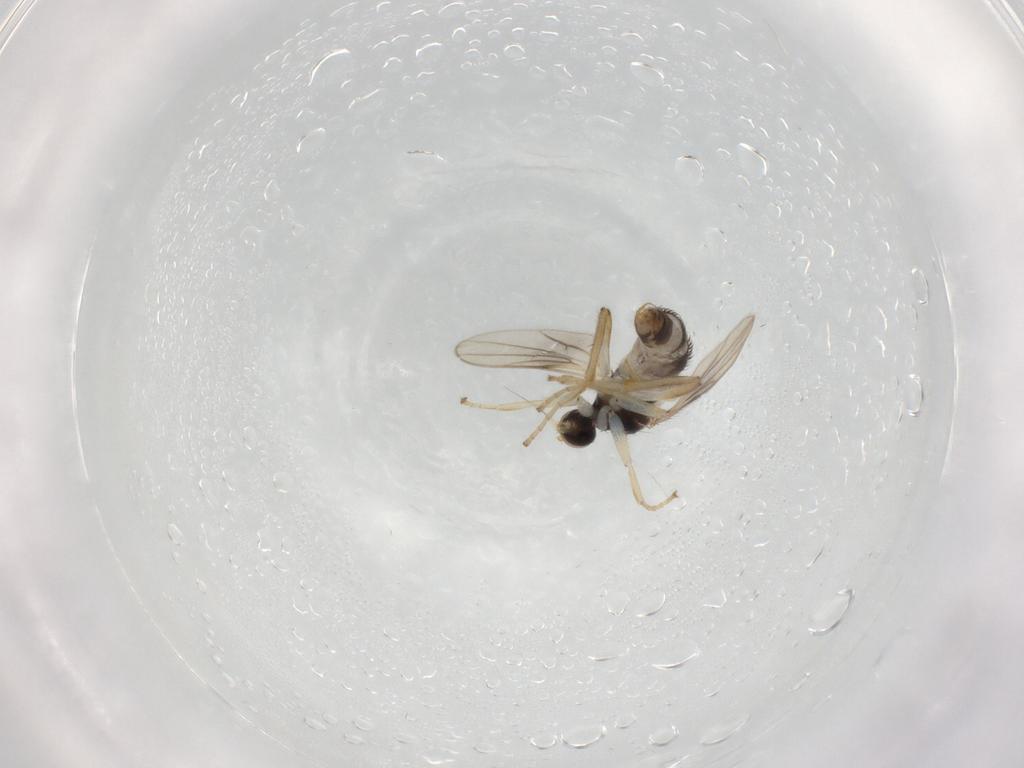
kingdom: Animalia
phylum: Arthropoda
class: Insecta
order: Diptera
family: Hybotidae
